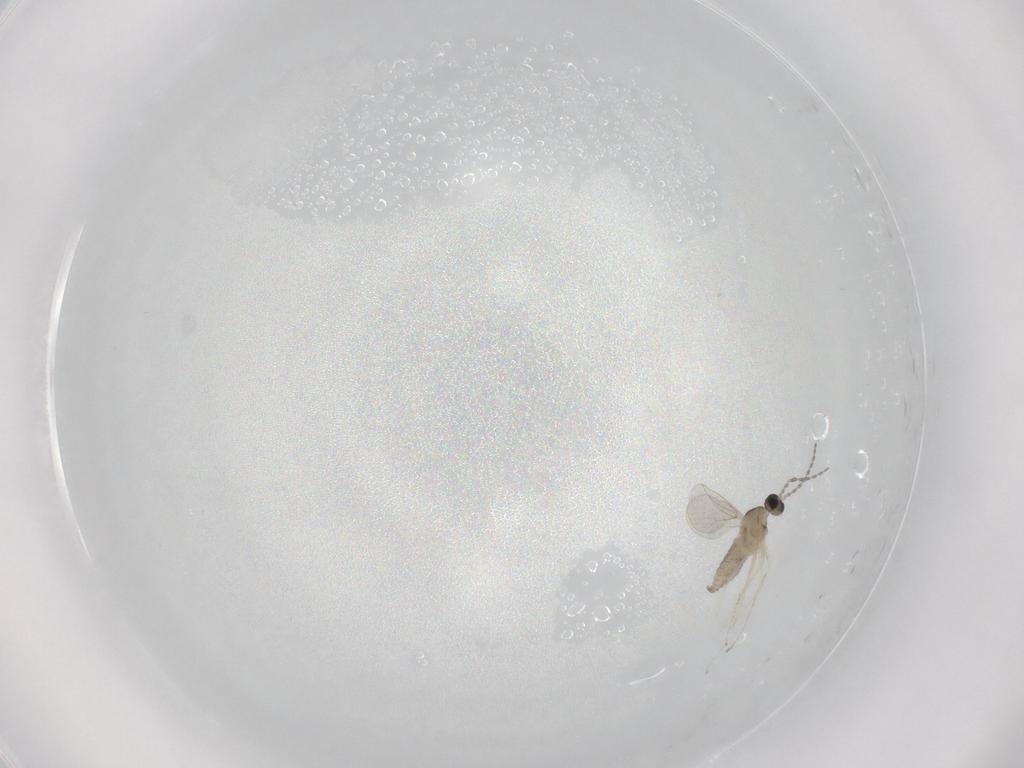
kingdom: Animalia
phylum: Arthropoda
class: Insecta
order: Diptera
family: Cecidomyiidae
